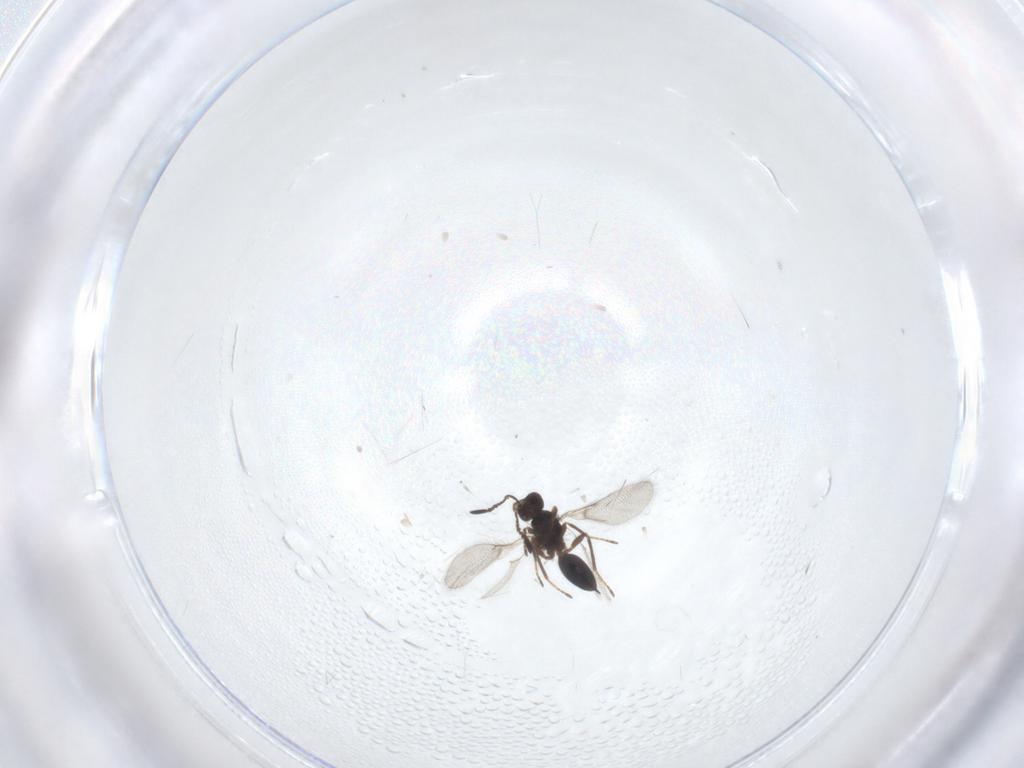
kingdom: Animalia
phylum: Arthropoda
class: Insecta
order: Hymenoptera
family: Mymaridae
